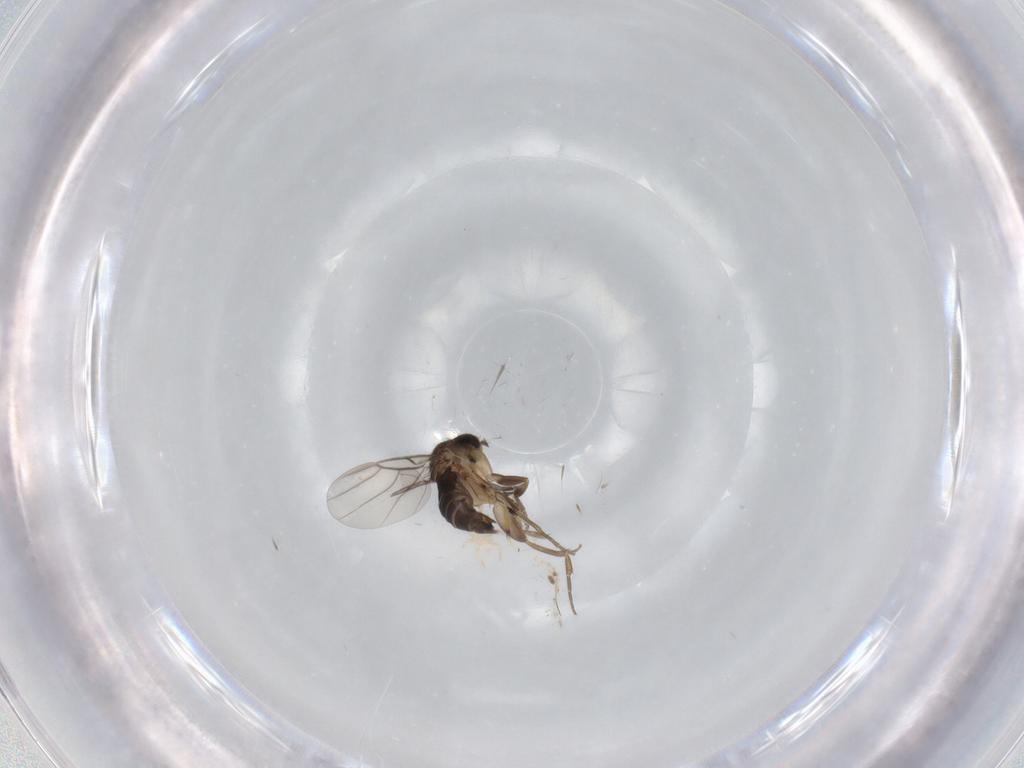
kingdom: Animalia
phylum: Arthropoda
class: Insecta
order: Diptera
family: Phoridae
